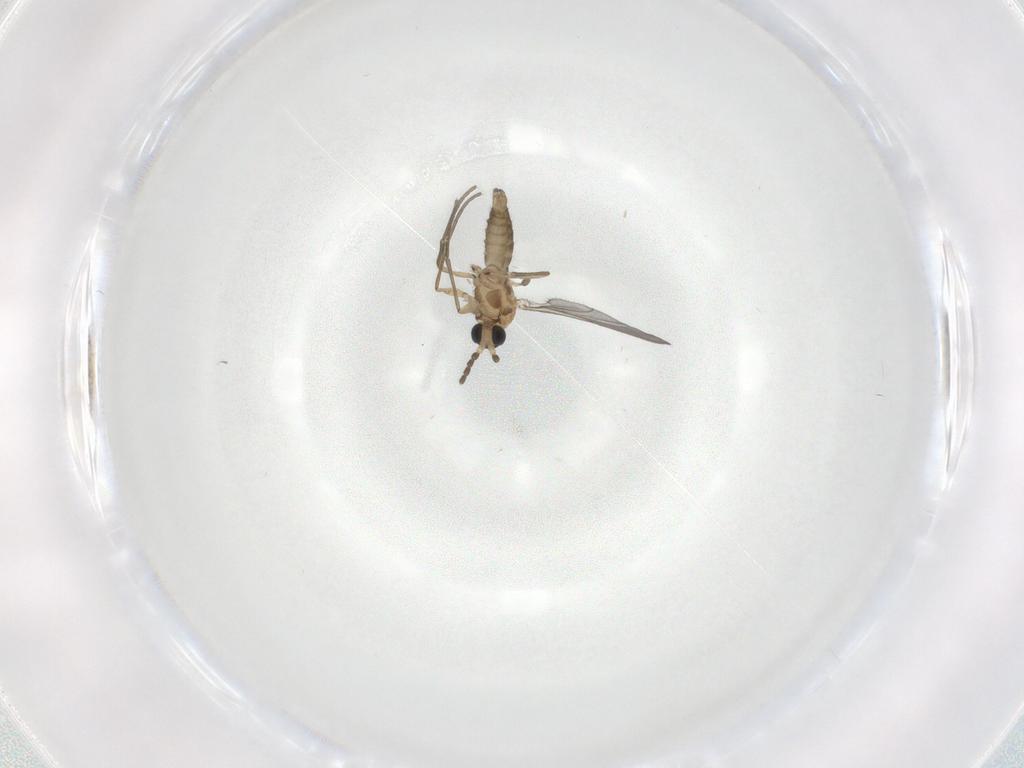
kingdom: Animalia
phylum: Arthropoda
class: Insecta
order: Diptera
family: Sciaridae
